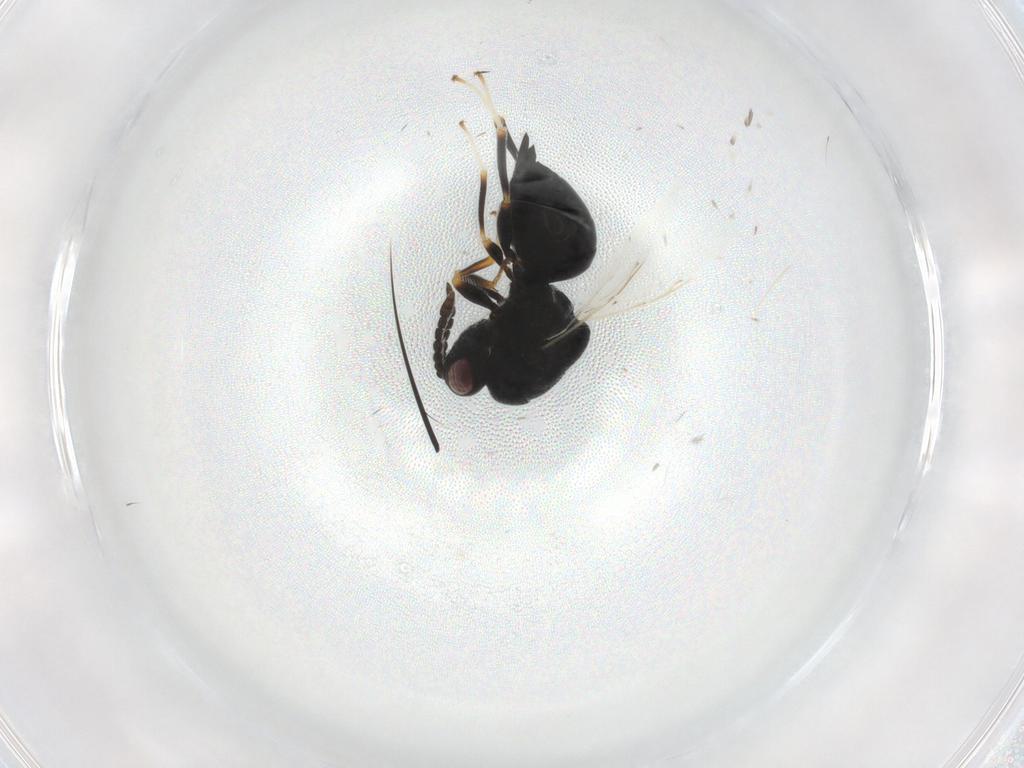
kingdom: Animalia
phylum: Arthropoda
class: Insecta
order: Hymenoptera
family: Eurytomidae
